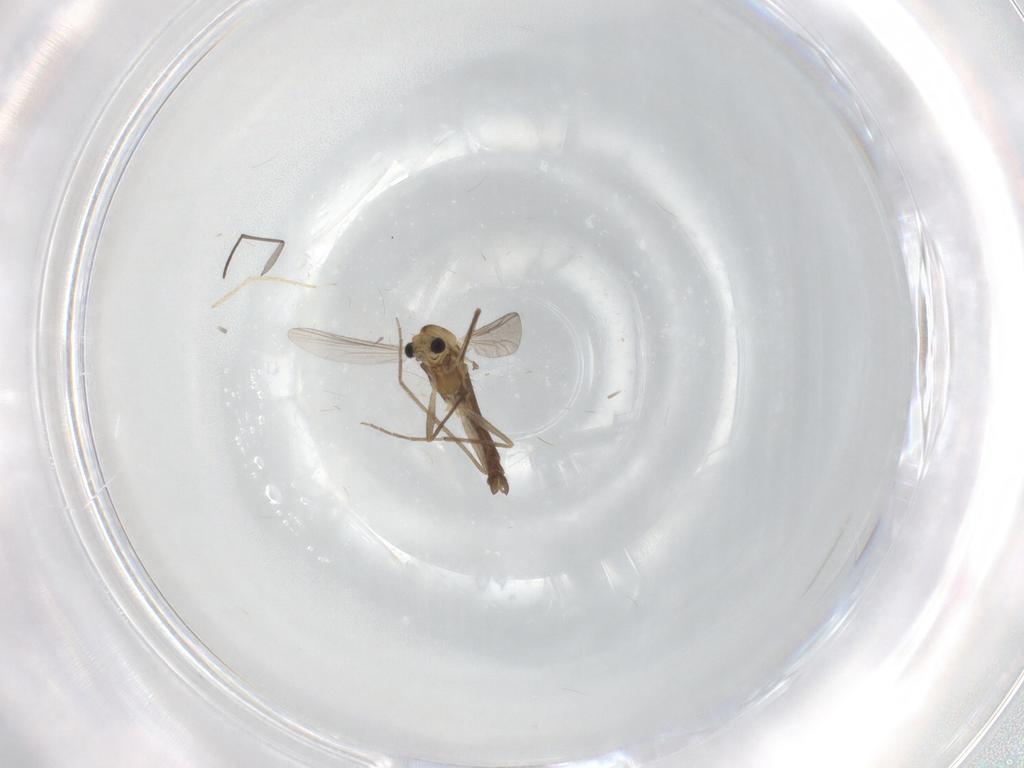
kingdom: Animalia
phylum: Arthropoda
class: Insecta
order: Diptera
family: Chironomidae
